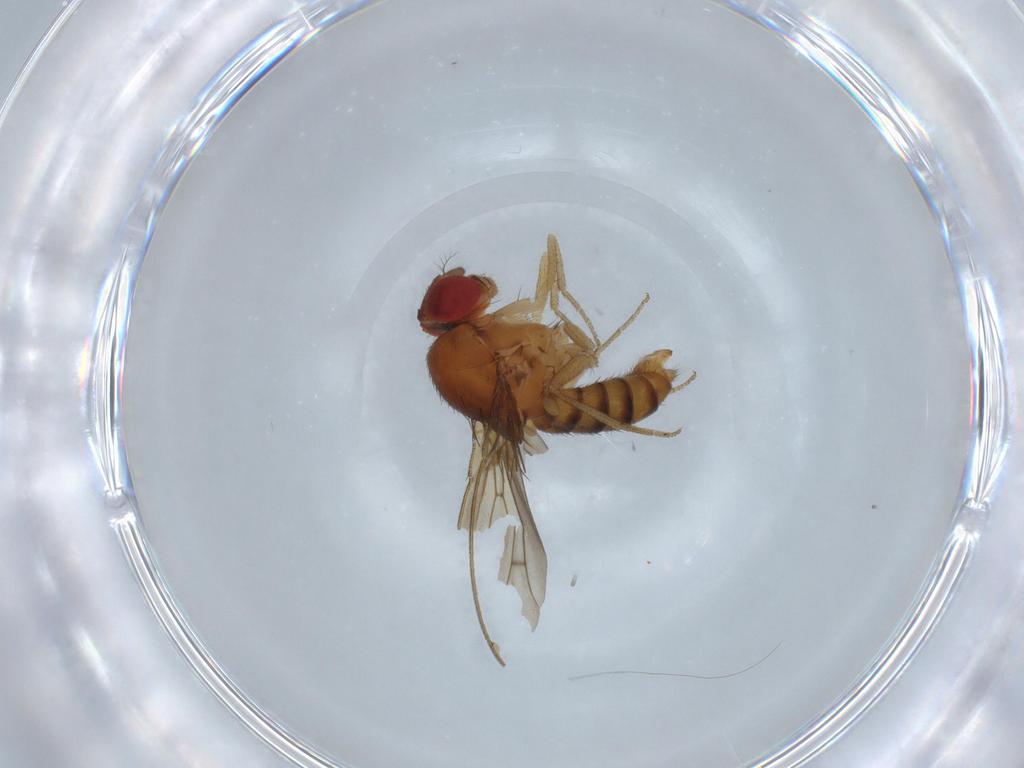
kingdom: Animalia
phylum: Arthropoda
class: Insecta
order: Diptera
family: Drosophilidae
